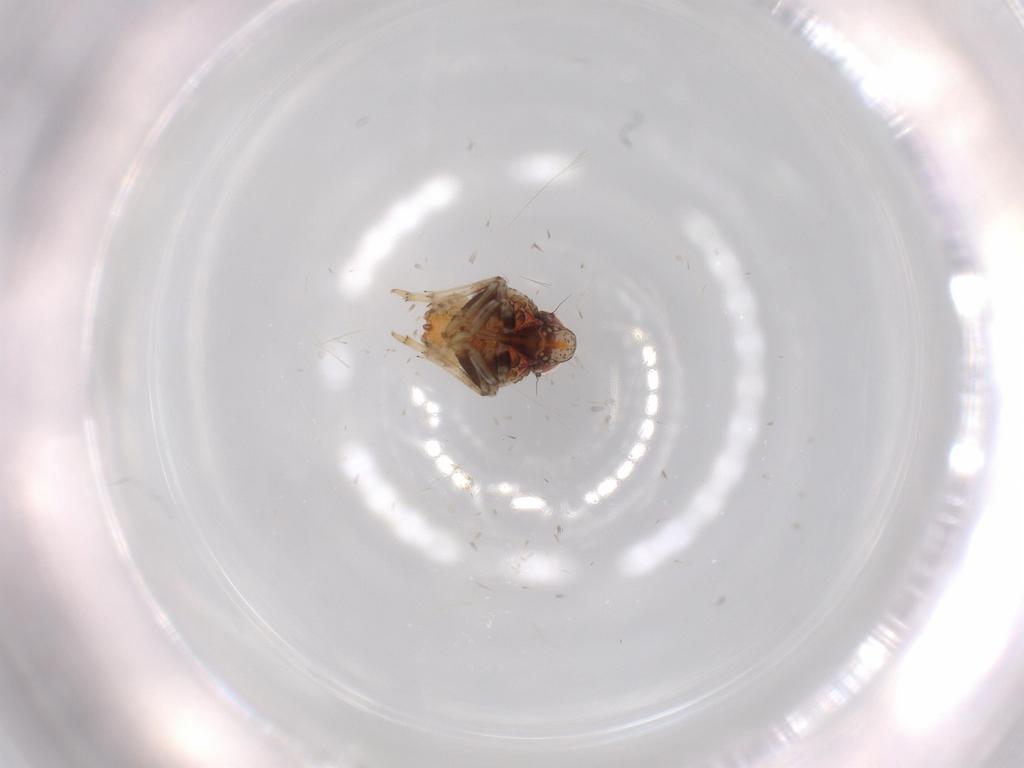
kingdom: Animalia
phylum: Arthropoda
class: Insecta
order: Hemiptera
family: Issidae
